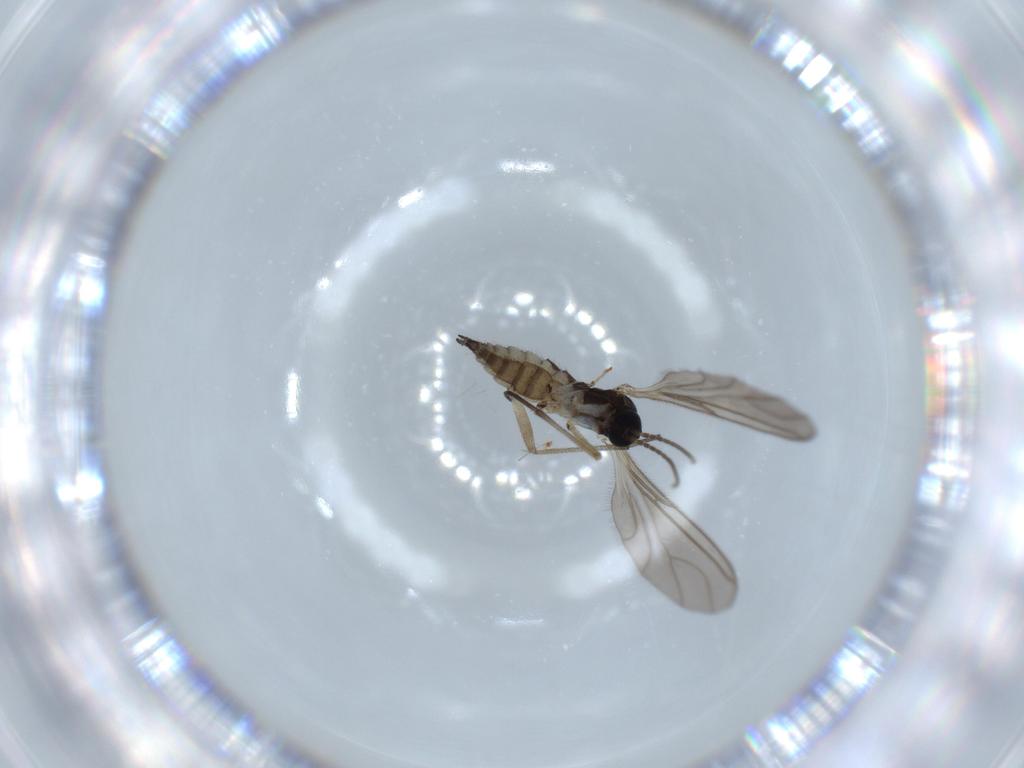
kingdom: Animalia
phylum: Arthropoda
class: Insecta
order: Diptera
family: Sciaridae
